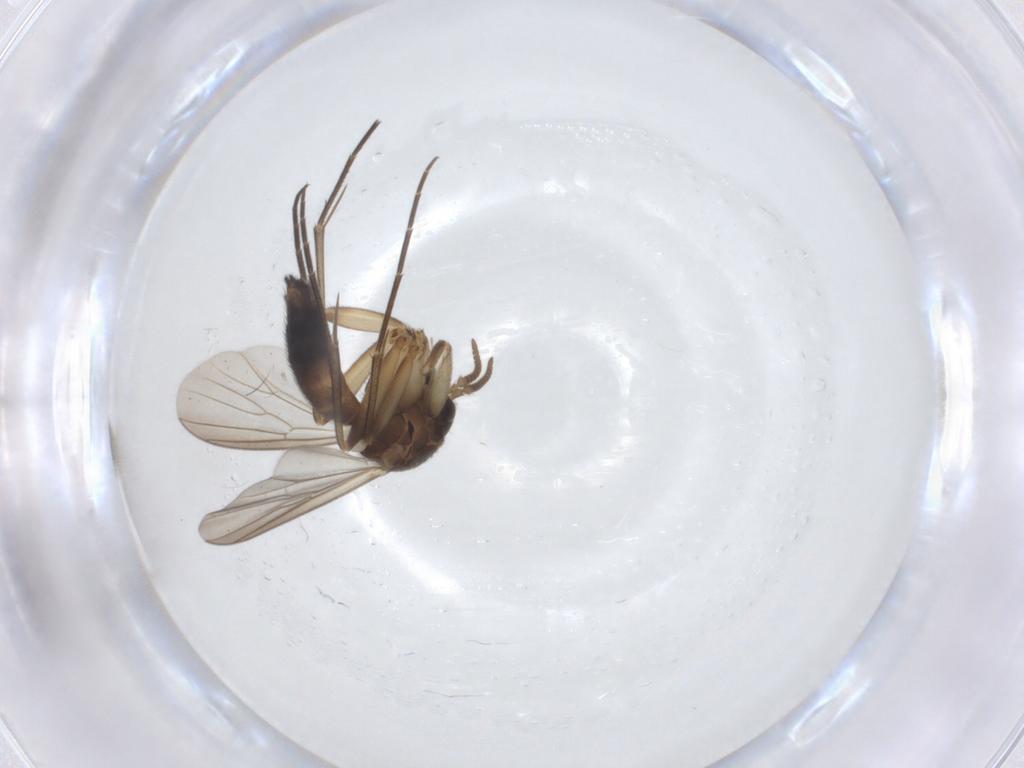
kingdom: Animalia
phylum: Arthropoda
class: Insecta
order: Diptera
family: Mycetophilidae
